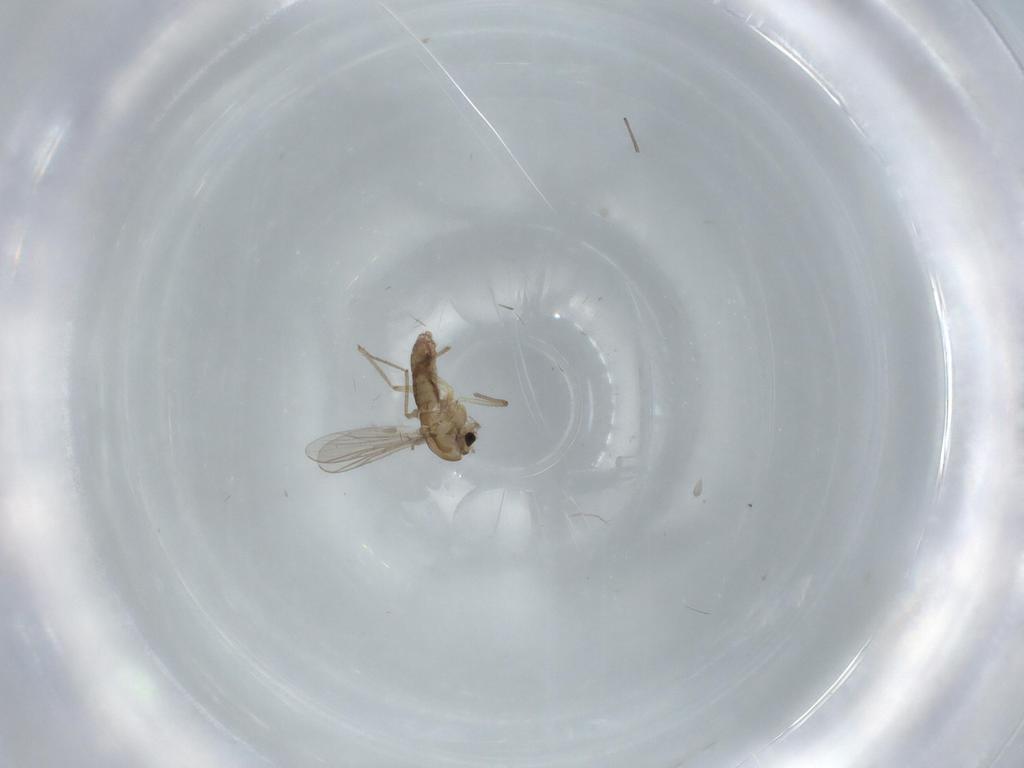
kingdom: Animalia
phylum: Arthropoda
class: Insecta
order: Diptera
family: Chironomidae
